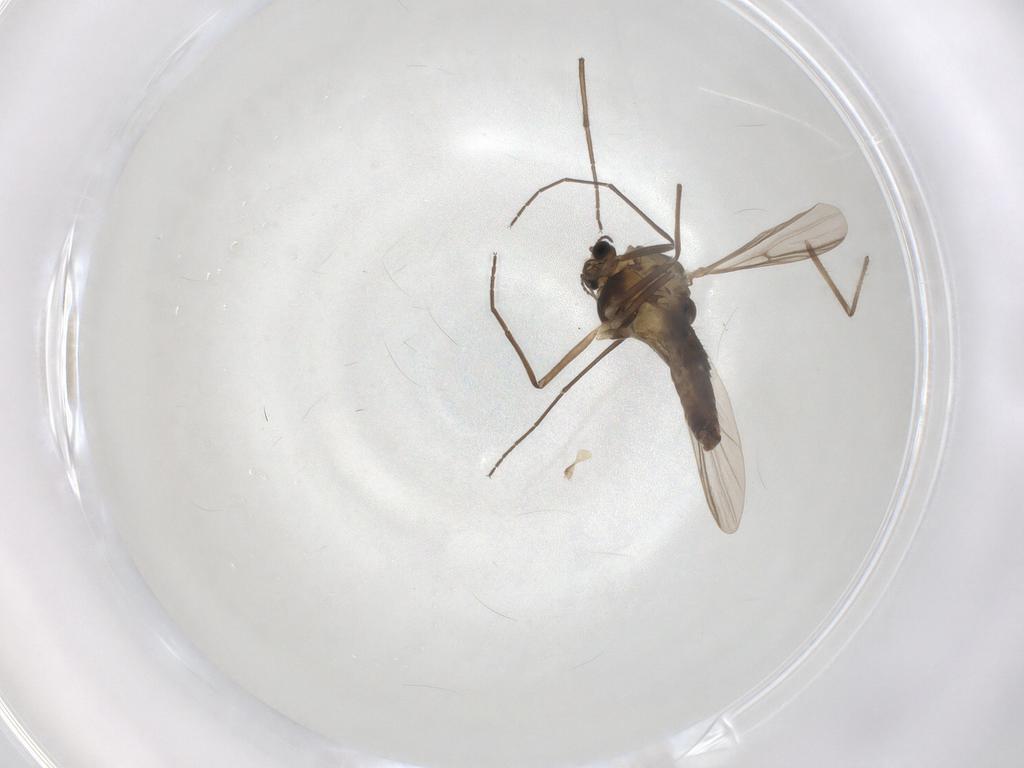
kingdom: Animalia
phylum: Arthropoda
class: Insecta
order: Diptera
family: Chironomidae
